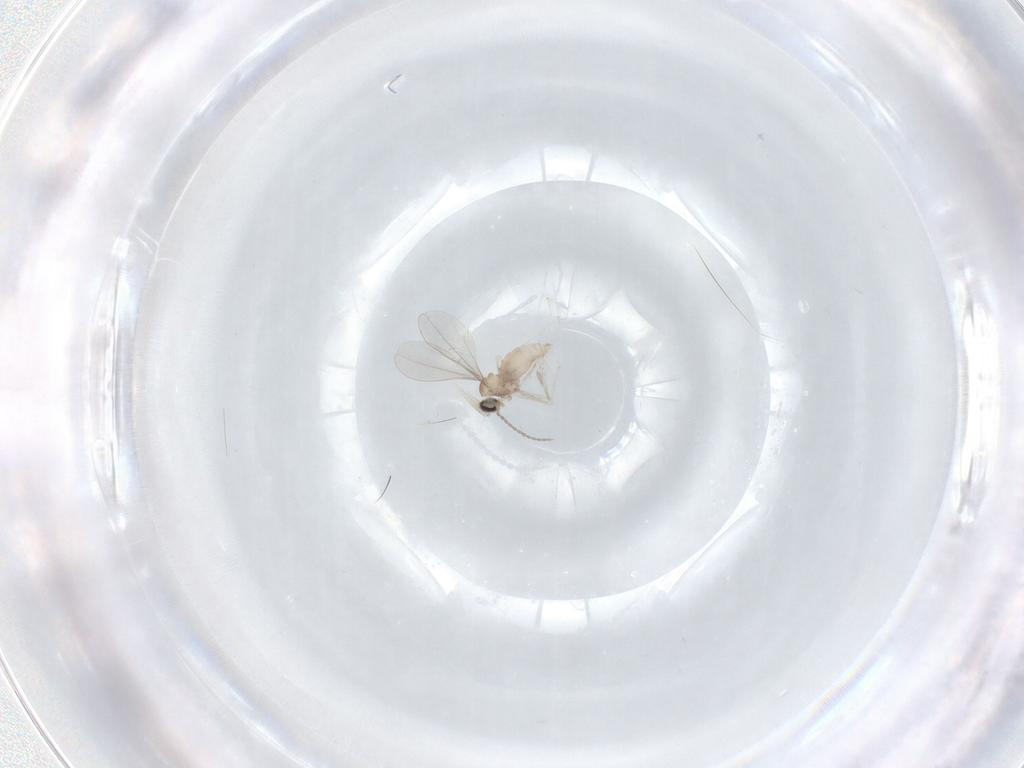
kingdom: Animalia
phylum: Arthropoda
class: Insecta
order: Diptera
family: Cecidomyiidae
